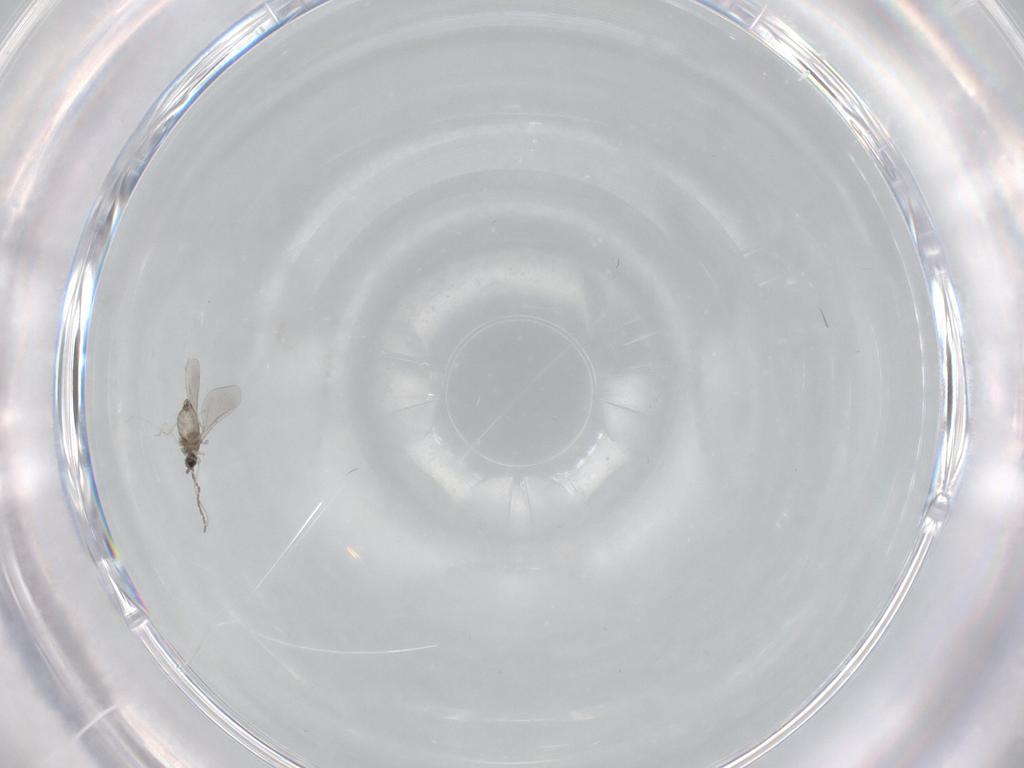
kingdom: Animalia
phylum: Arthropoda
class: Insecta
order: Diptera
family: Cecidomyiidae
